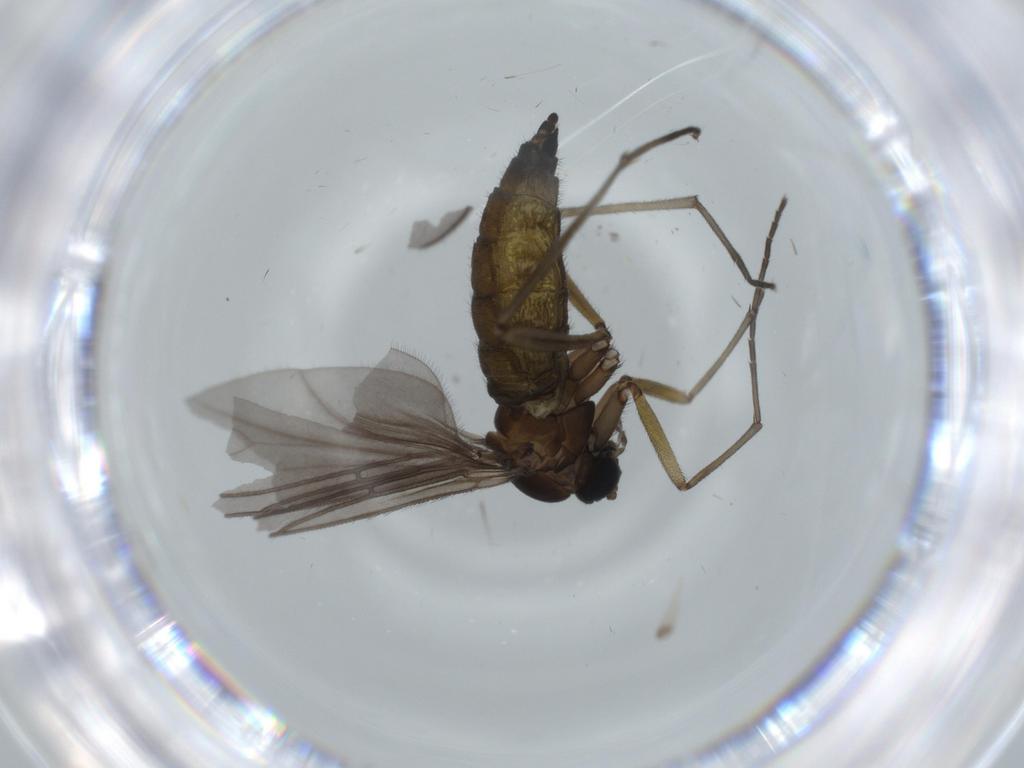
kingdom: Animalia
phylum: Arthropoda
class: Insecta
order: Diptera
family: Sciaridae
